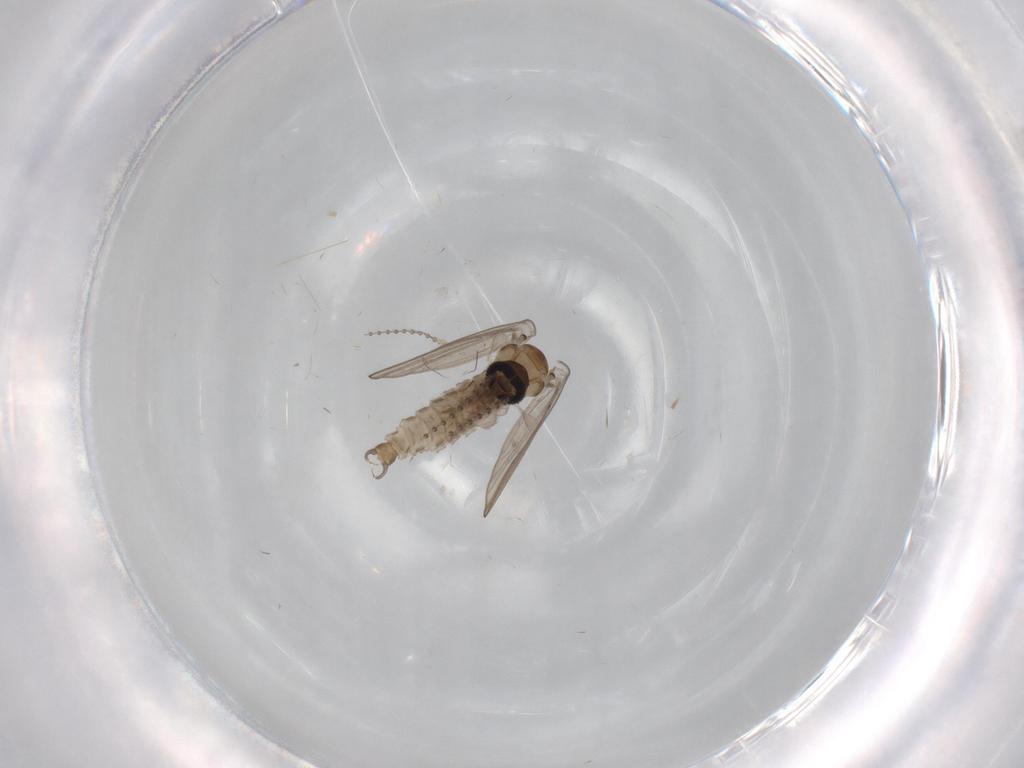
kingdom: Animalia
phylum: Arthropoda
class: Insecta
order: Diptera
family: Psychodidae
